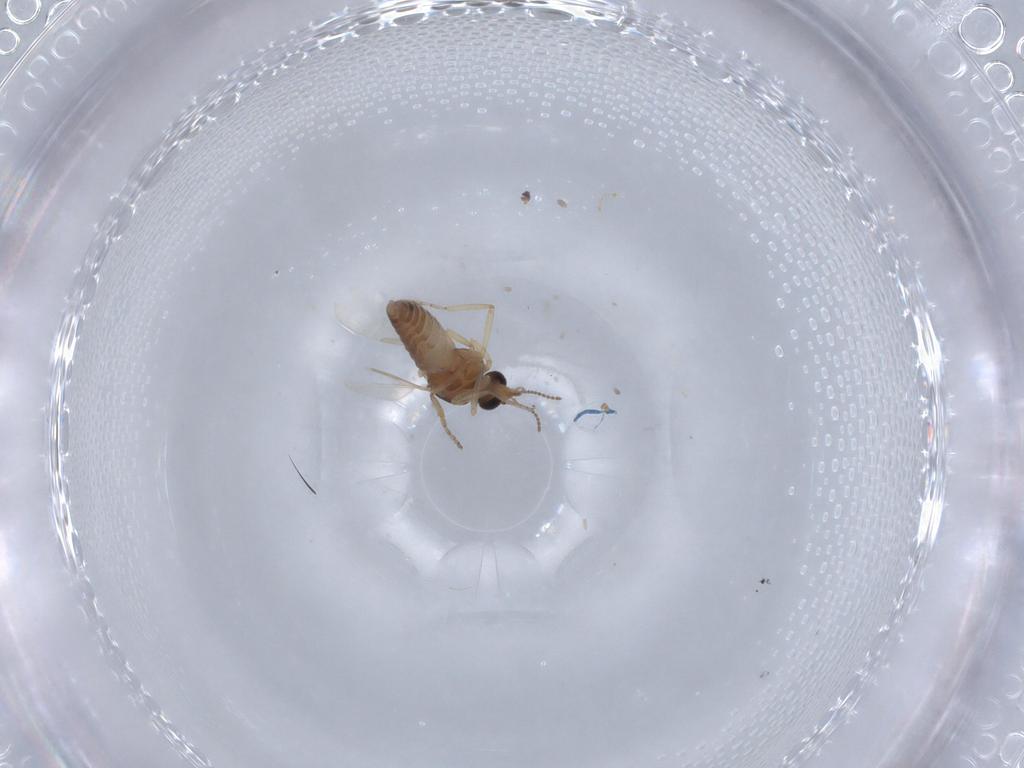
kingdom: Animalia
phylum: Arthropoda
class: Insecta
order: Diptera
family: Ceratopogonidae
